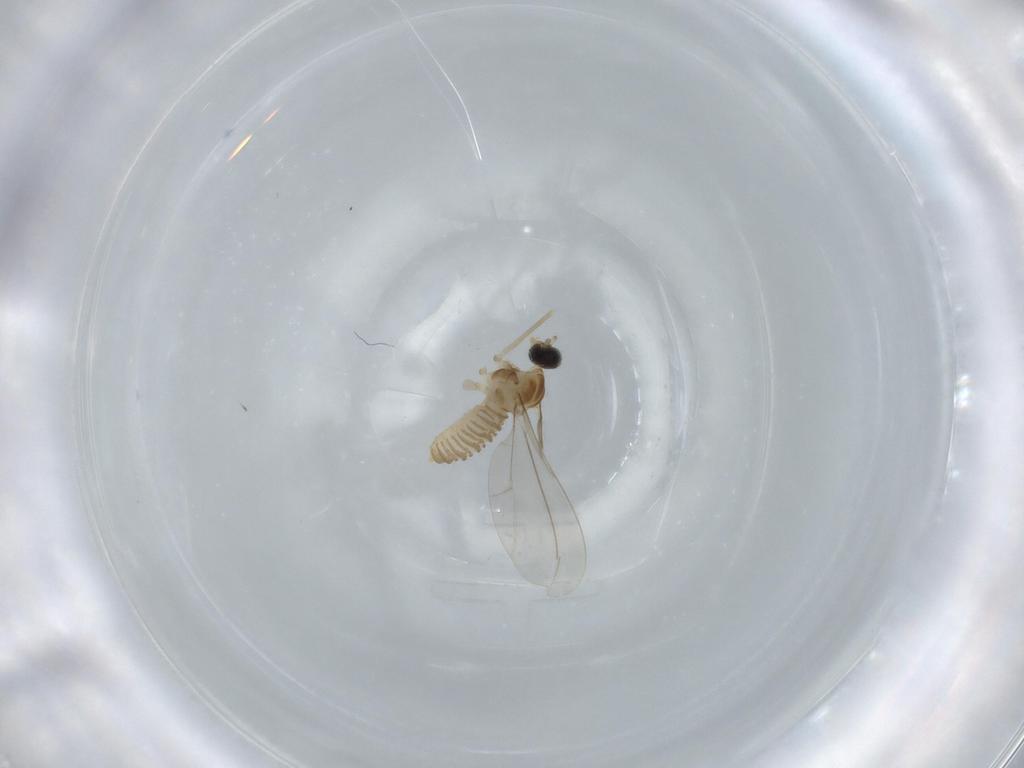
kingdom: Animalia
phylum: Arthropoda
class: Insecta
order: Diptera
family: Cecidomyiidae
